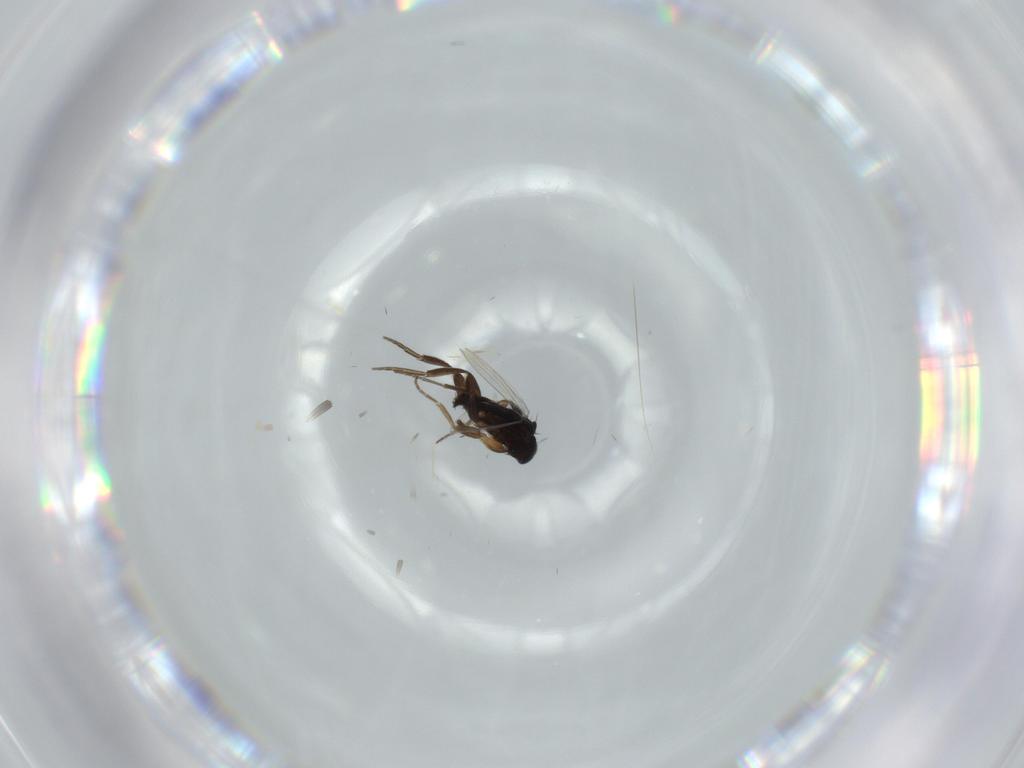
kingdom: Animalia
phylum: Arthropoda
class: Insecta
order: Diptera
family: Phoridae
